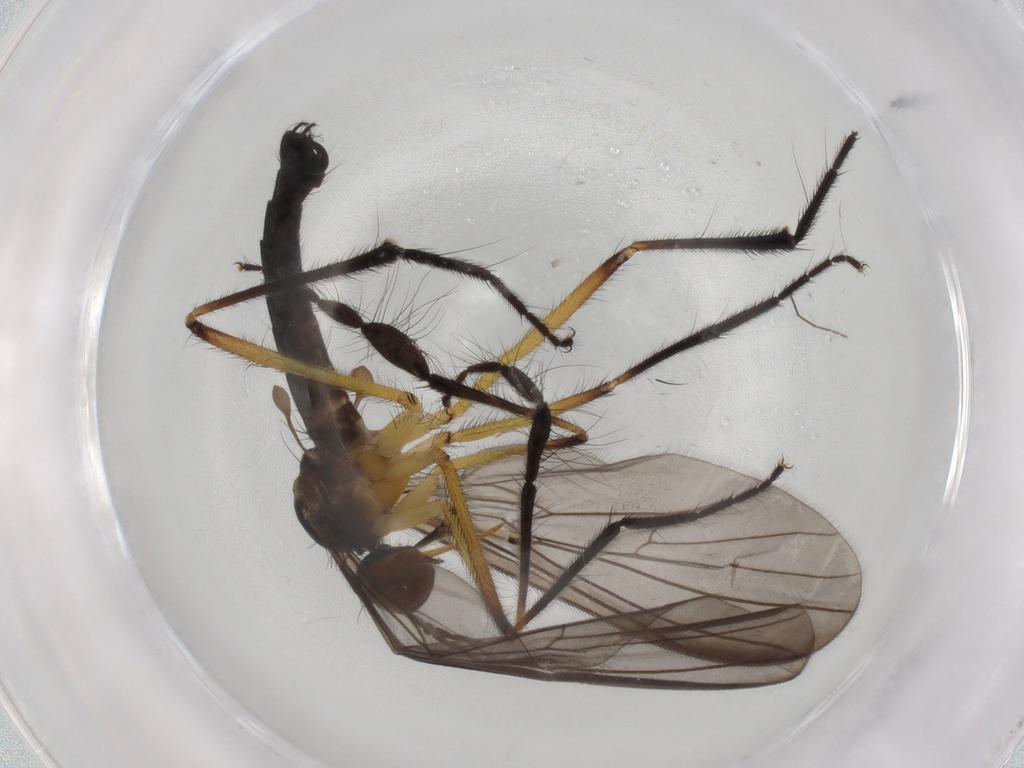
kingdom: Animalia
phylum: Arthropoda
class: Insecta
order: Diptera
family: Empididae
